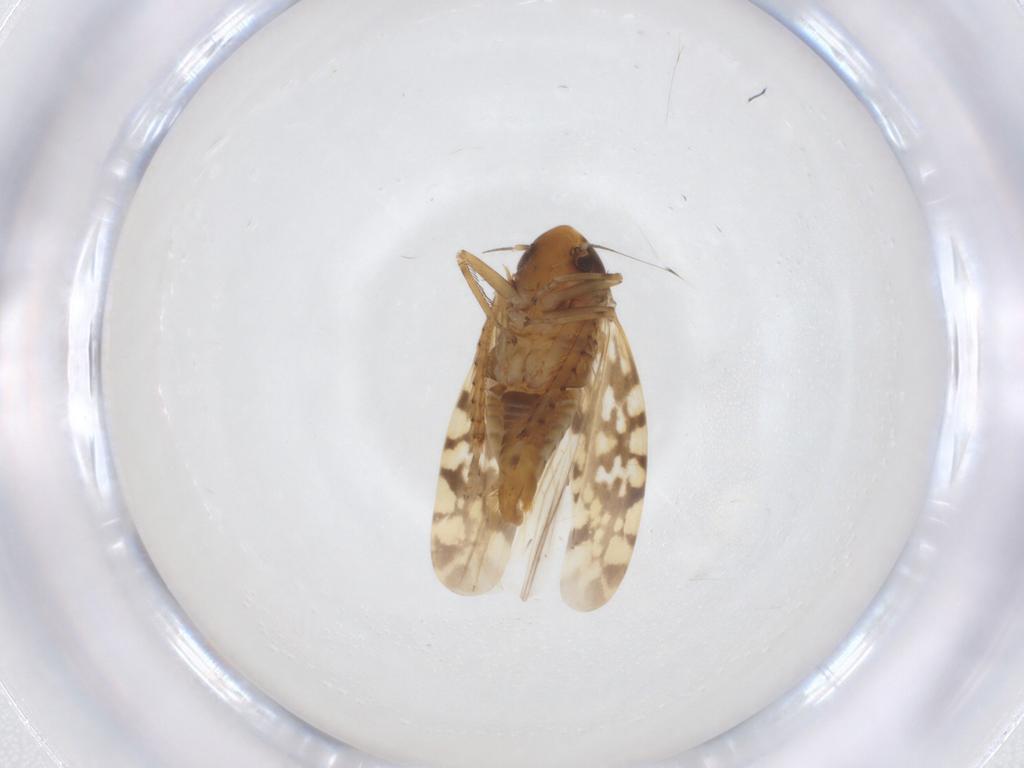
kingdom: Animalia
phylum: Arthropoda
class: Insecta
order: Hemiptera
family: Cicadellidae
